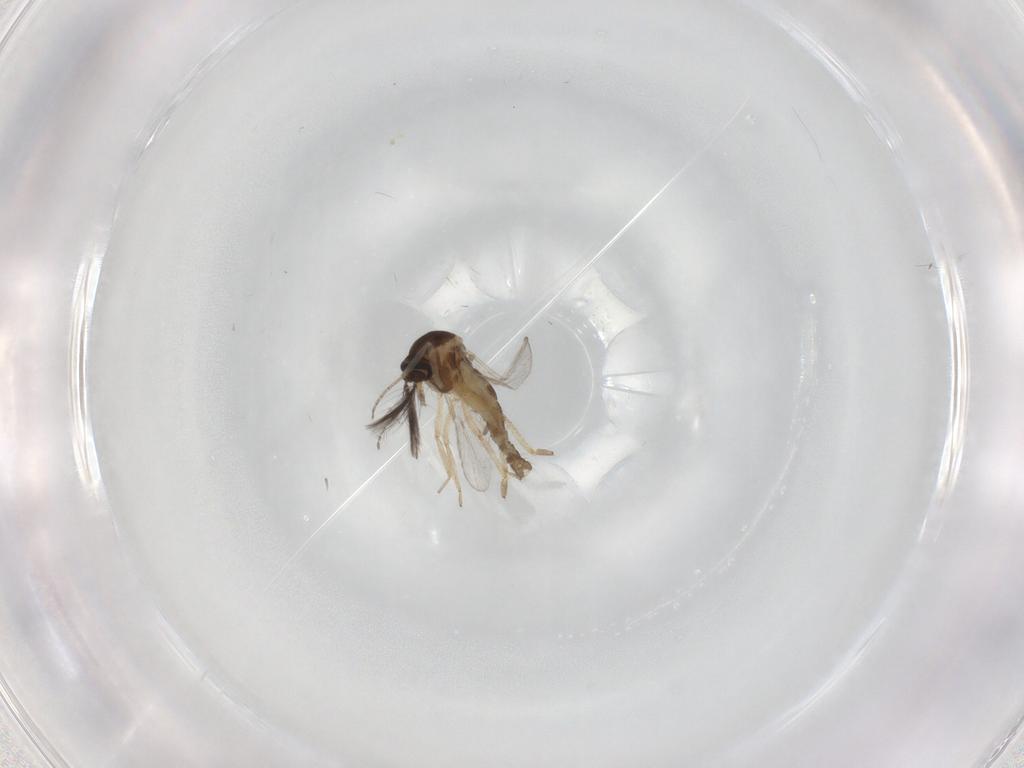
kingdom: Animalia
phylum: Arthropoda
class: Insecta
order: Diptera
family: Ceratopogonidae
